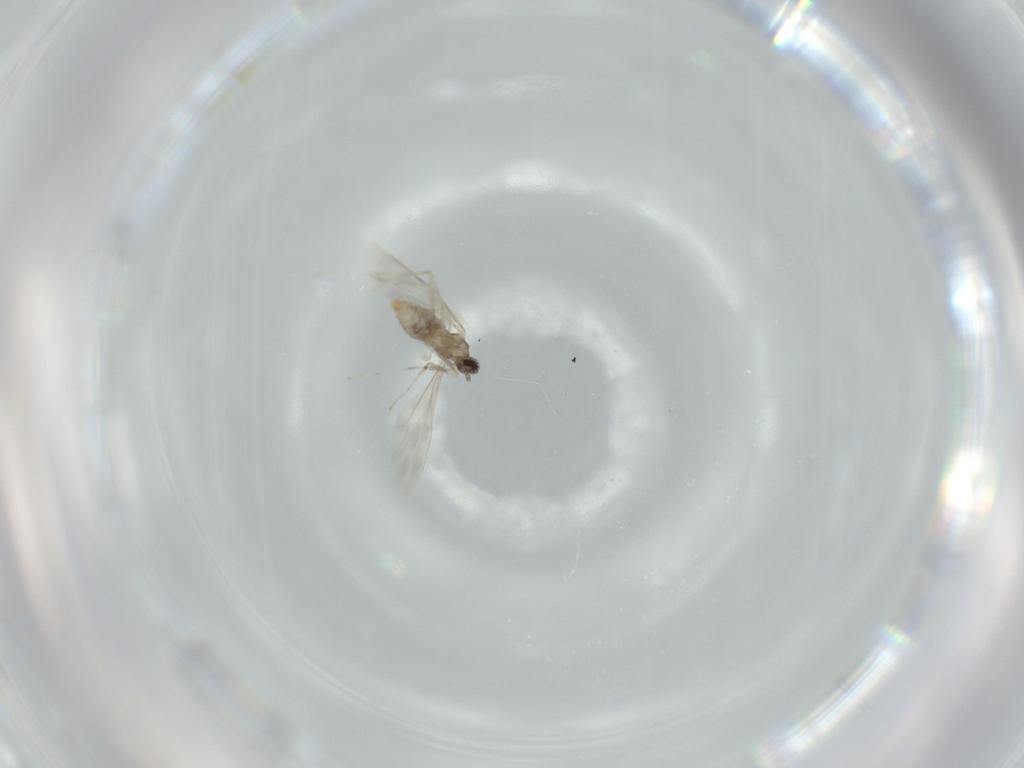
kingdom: Animalia
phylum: Arthropoda
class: Insecta
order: Diptera
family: Cecidomyiidae
